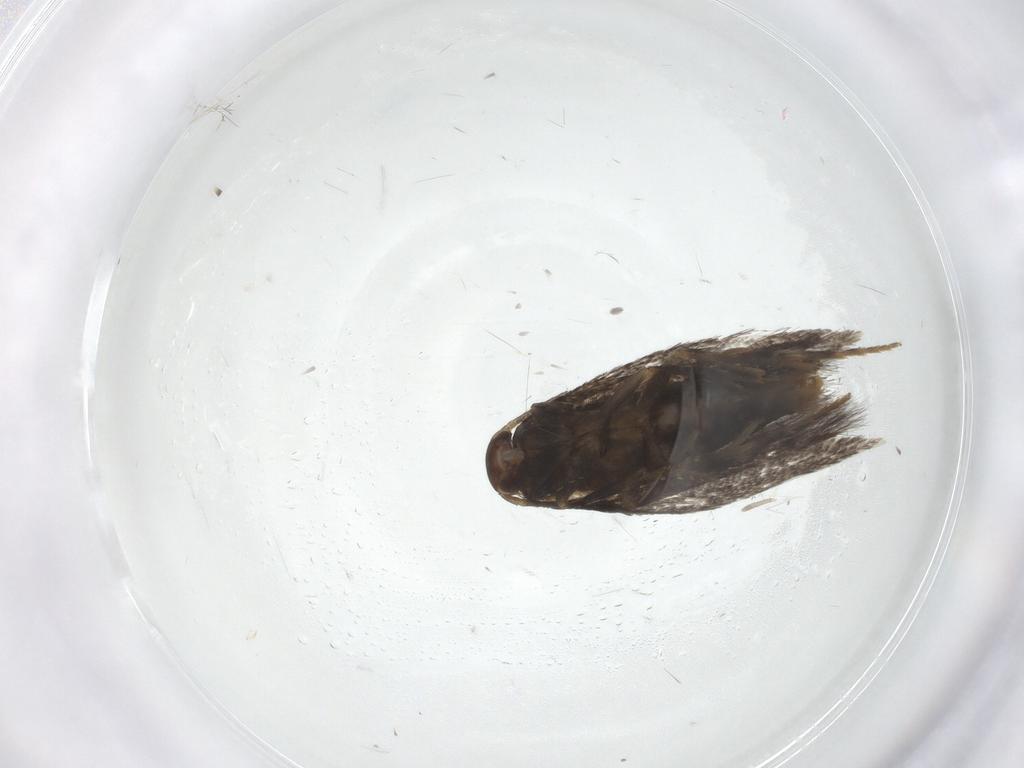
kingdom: Animalia
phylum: Arthropoda
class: Insecta
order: Lepidoptera
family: Elachistidae
